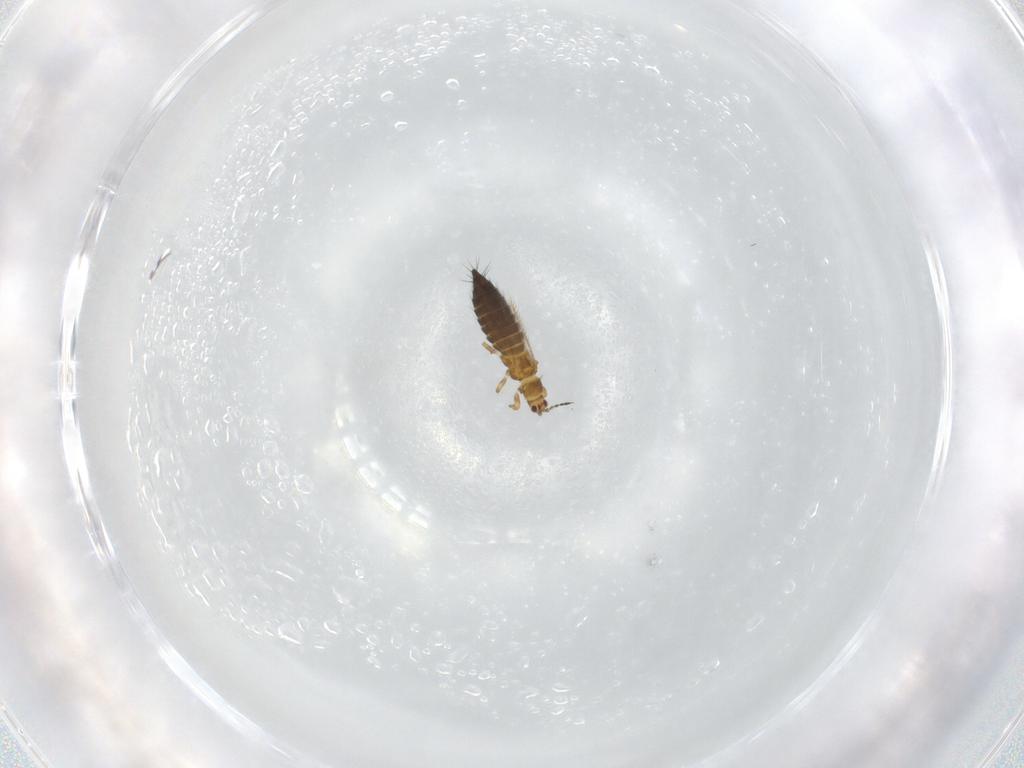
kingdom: Animalia
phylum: Arthropoda
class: Insecta
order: Thysanoptera
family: Thripidae
